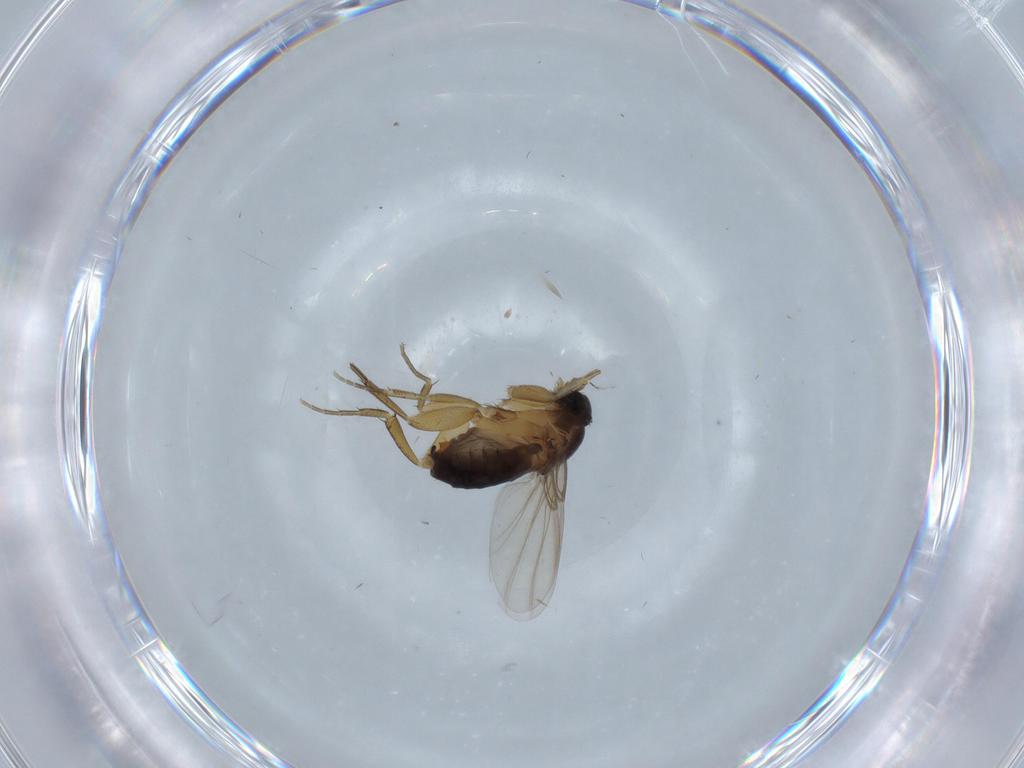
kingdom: Animalia
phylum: Arthropoda
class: Insecta
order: Diptera
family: Phoridae
